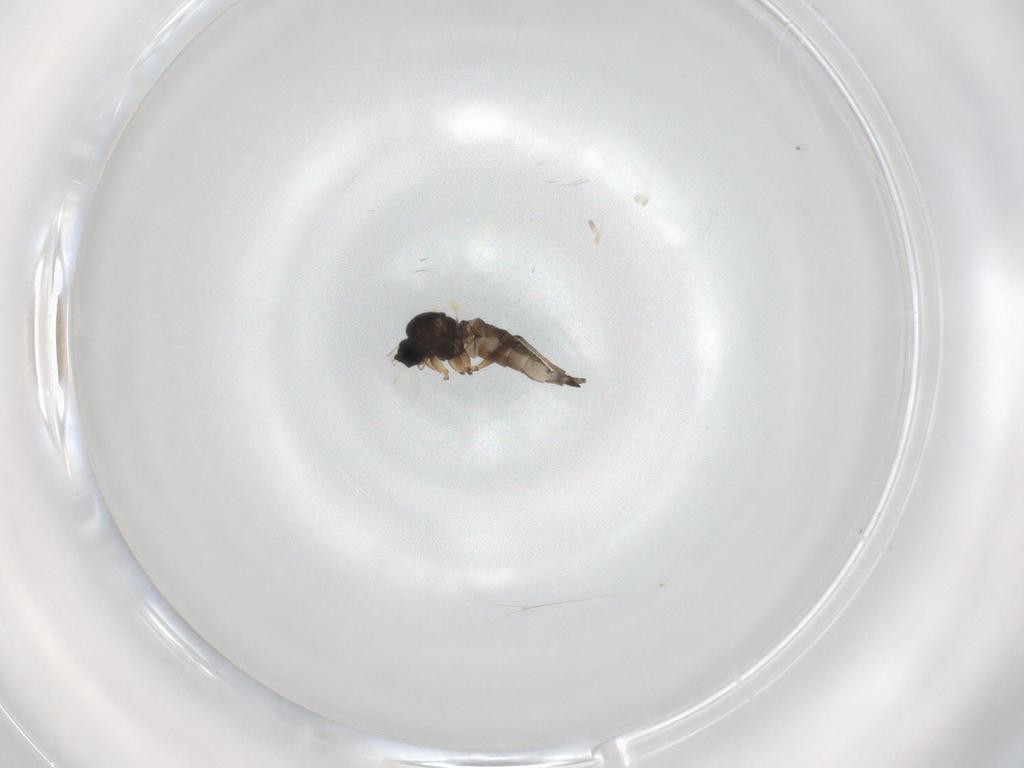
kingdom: Animalia
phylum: Arthropoda
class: Insecta
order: Diptera
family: Sciaridae
